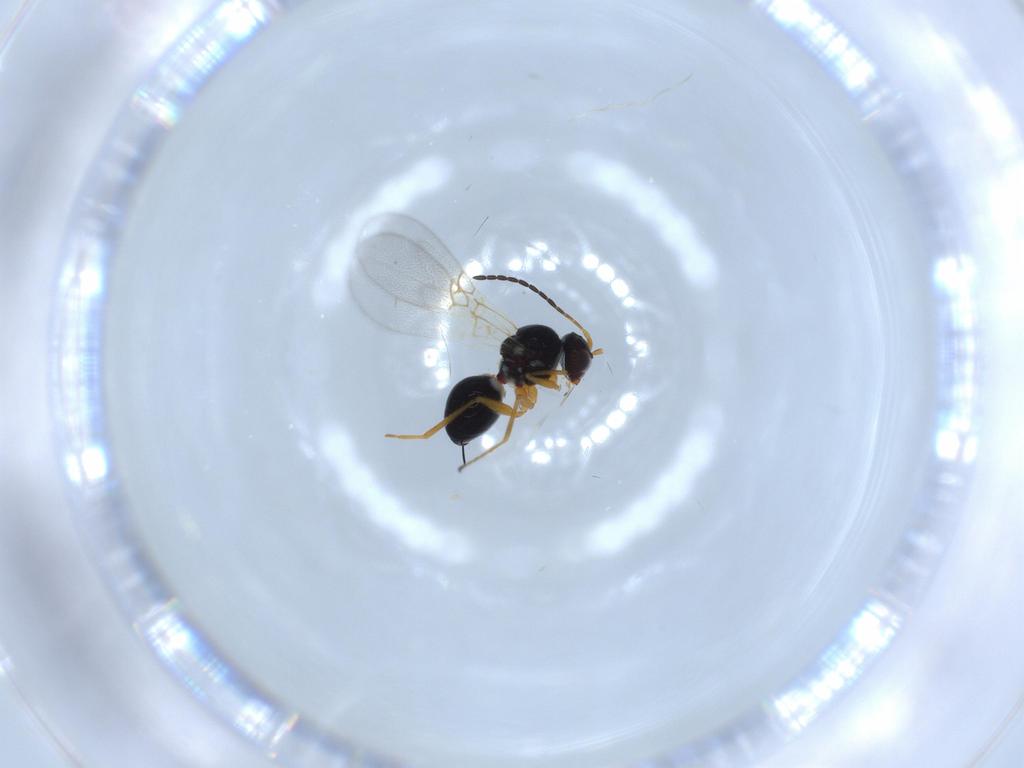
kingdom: Animalia
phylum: Arthropoda
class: Insecta
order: Hymenoptera
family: Figitidae
